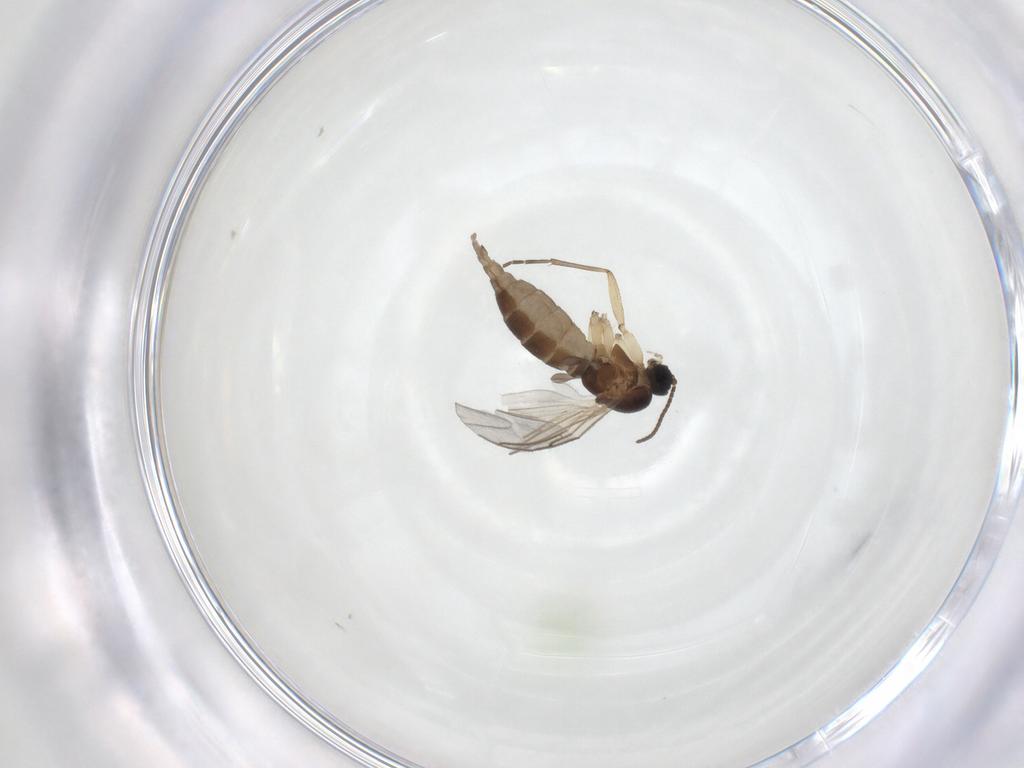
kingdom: Animalia
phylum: Arthropoda
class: Insecta
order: Diptera
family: Sciaridae
